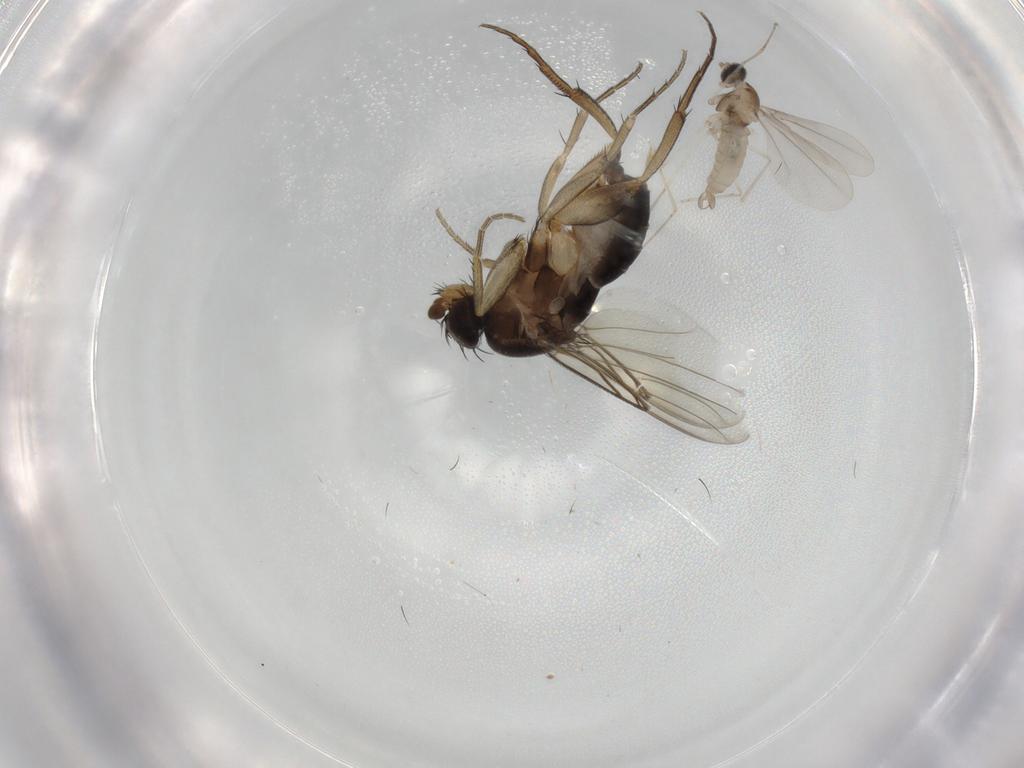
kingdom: Animalia
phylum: Arthropoda
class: Insecta
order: Diptera
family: Phoridae
